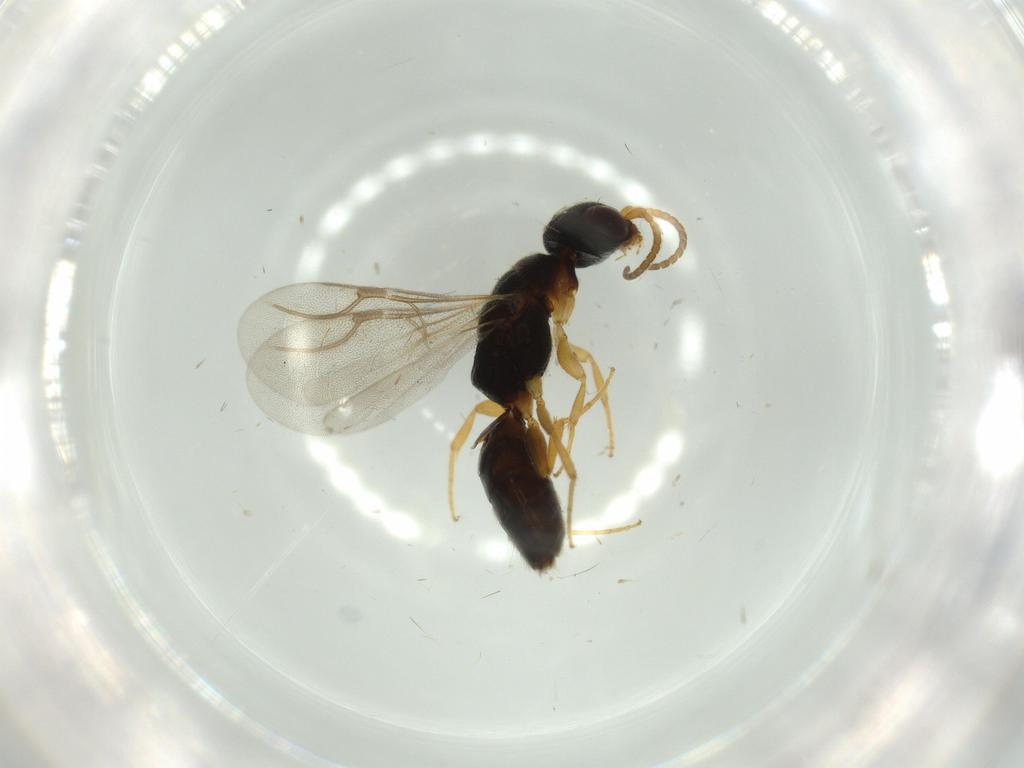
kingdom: Animalia
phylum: Arthropoda
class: Insecta
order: Hymenoptera
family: Bethylidae
